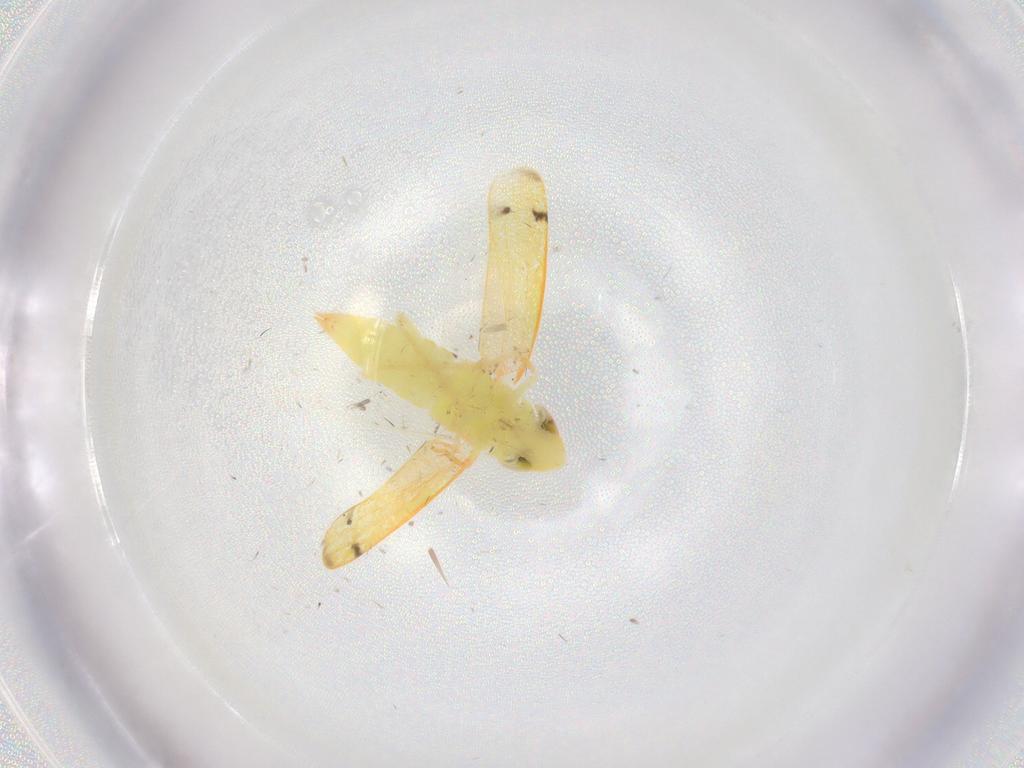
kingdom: Animalia
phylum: Arthropoda
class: Insecta
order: Hemiptera
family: Cicadellidae
